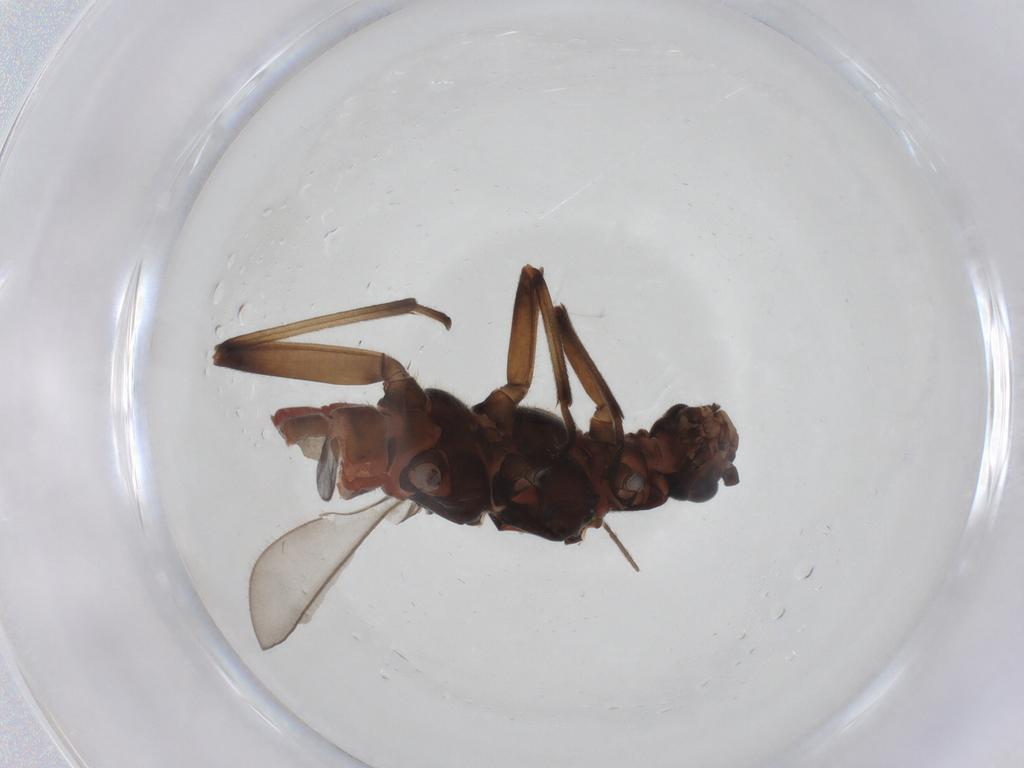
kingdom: Animalia
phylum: Arthropoda
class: Insecta
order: Plecoptera
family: Capniidae
